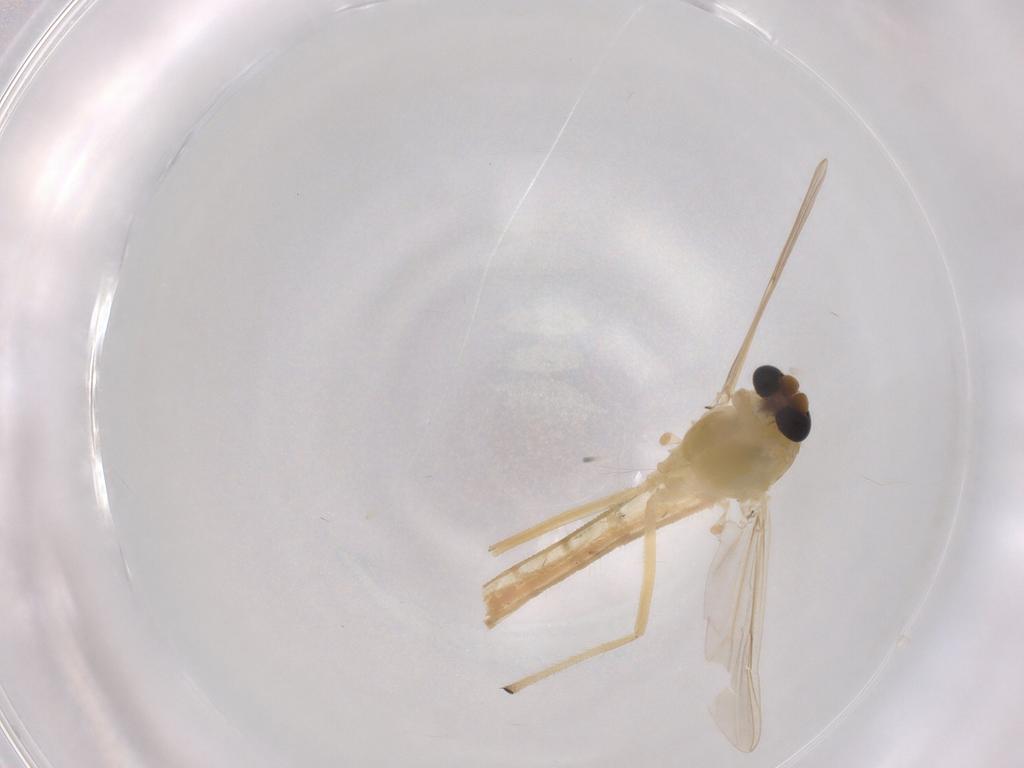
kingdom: Animalia
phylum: Arthropoda
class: Insecta
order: Diptera
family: Chironomidae
